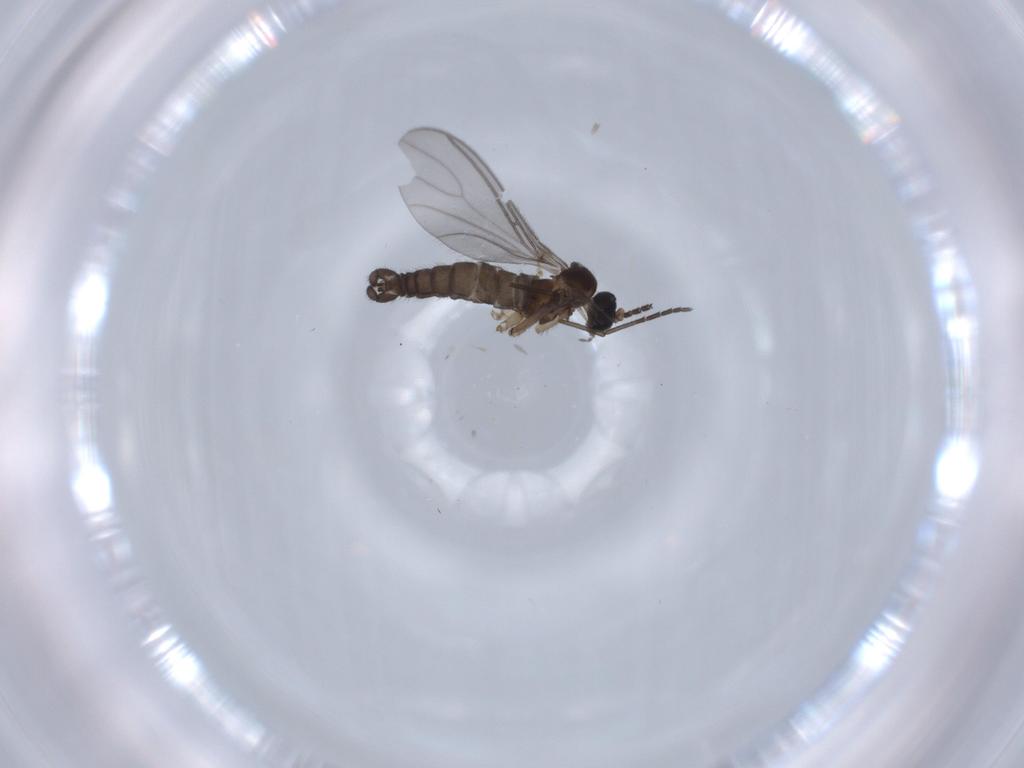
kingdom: Animalia
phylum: Arthropoda
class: Insecta
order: Diptera
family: Sciaridae
